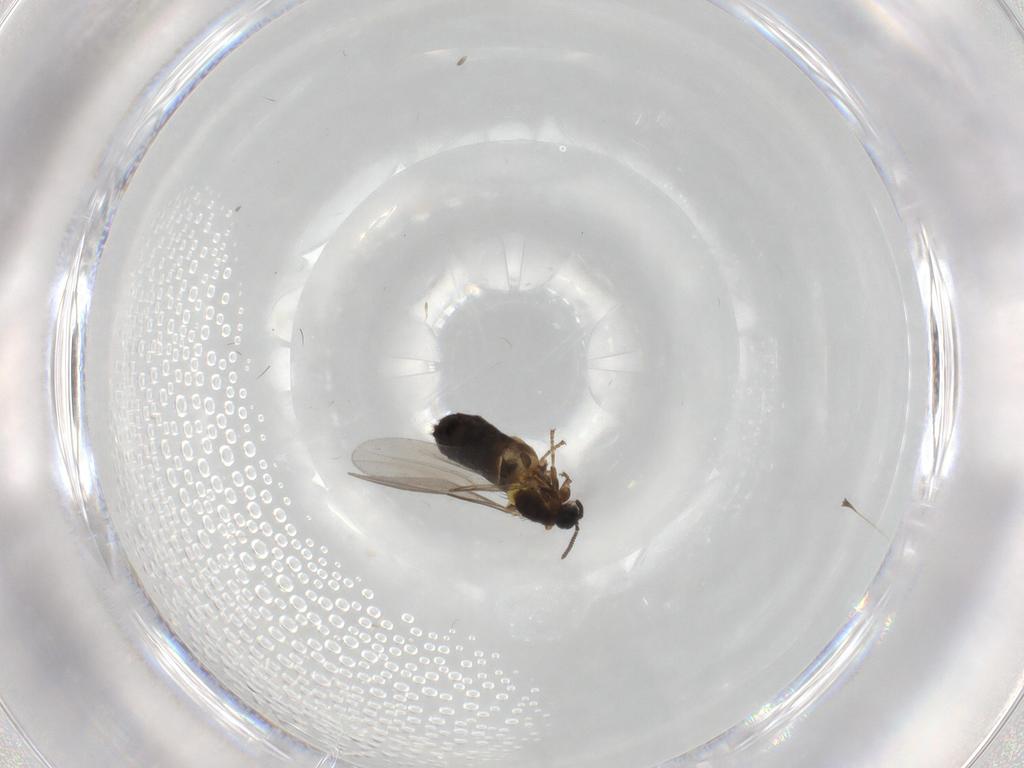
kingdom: Animalia
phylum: Arthropoda
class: Insecta
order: Diptera
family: Scatopsidae
